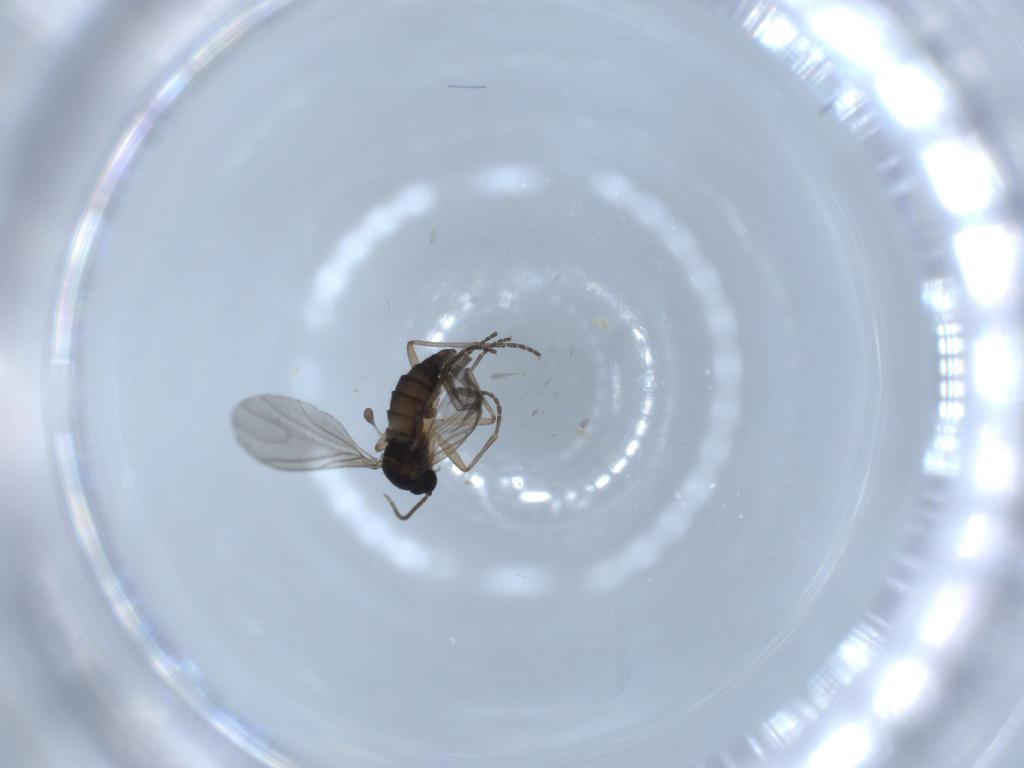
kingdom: Animalia
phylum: Arthropoda
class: Insecta
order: Diptera
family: Sciaridae
